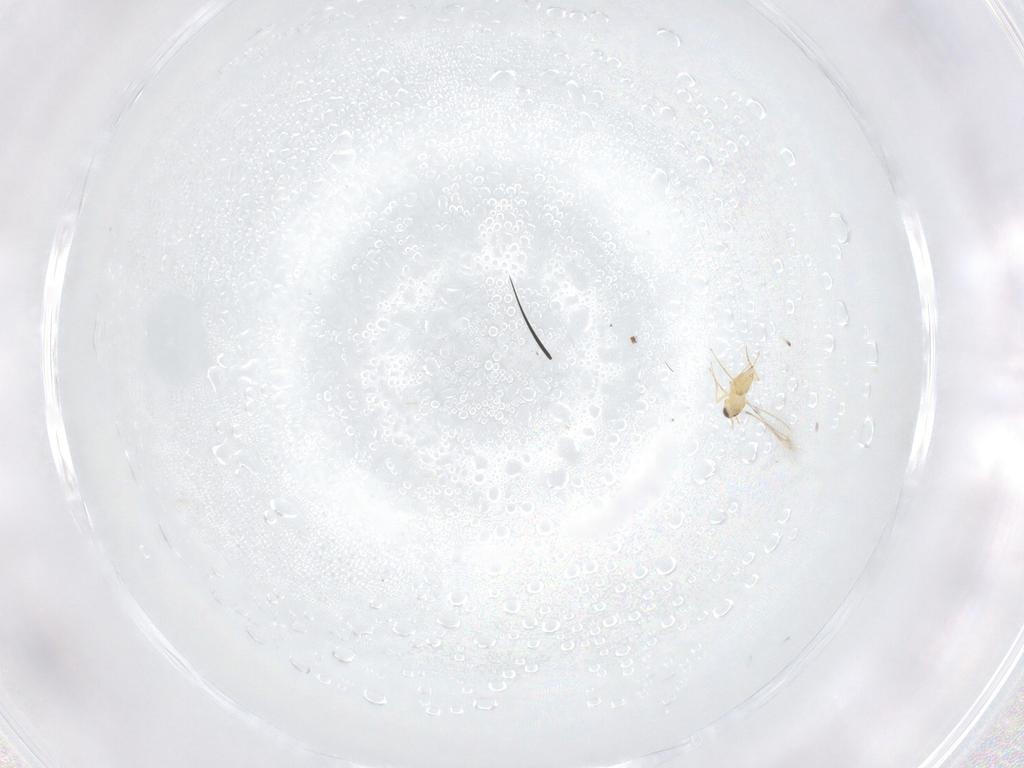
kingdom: Animalia
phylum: Arthropoda
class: Insecta
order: Hymenoptera
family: Mymaridae
